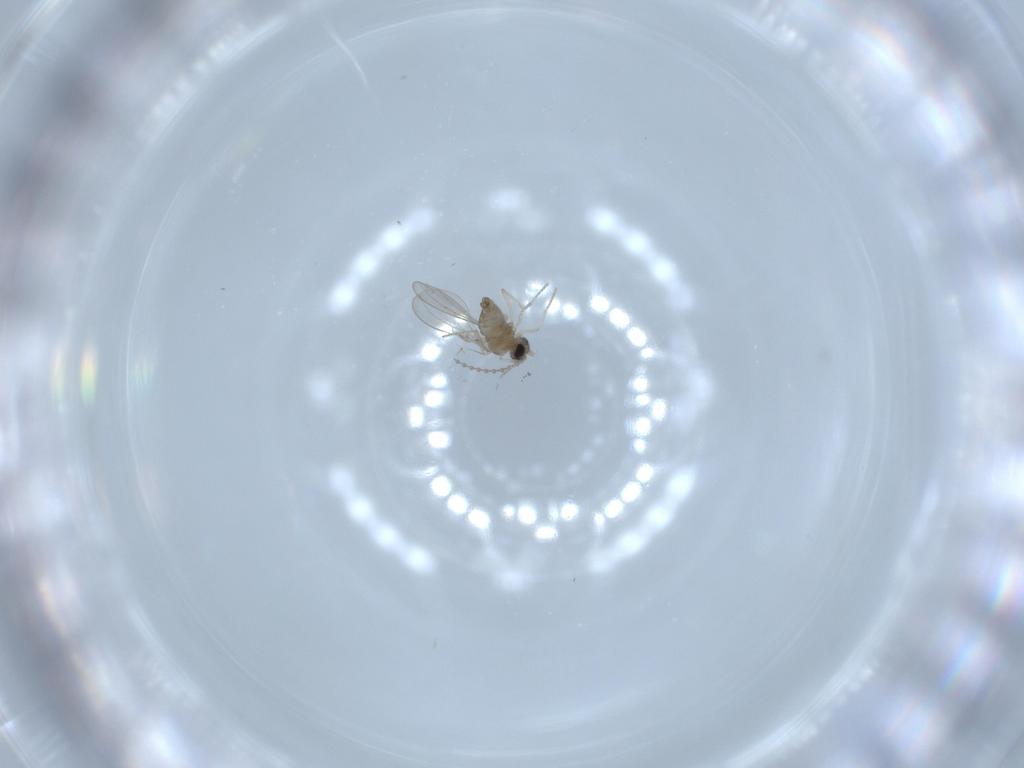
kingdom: Animalia
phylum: Arthropoda
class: Insecta
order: Diptera
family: Cecidomyiidae
